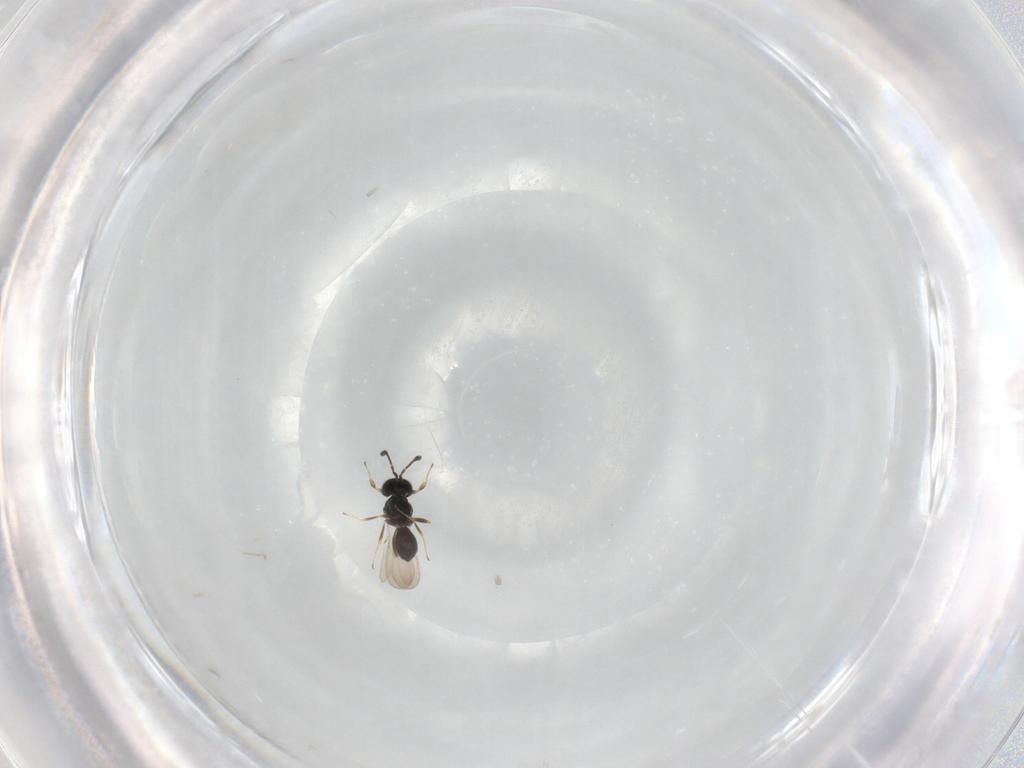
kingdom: Animalia
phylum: Arthropoda
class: Insecta
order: Hymenoptera
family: Scelionidae
